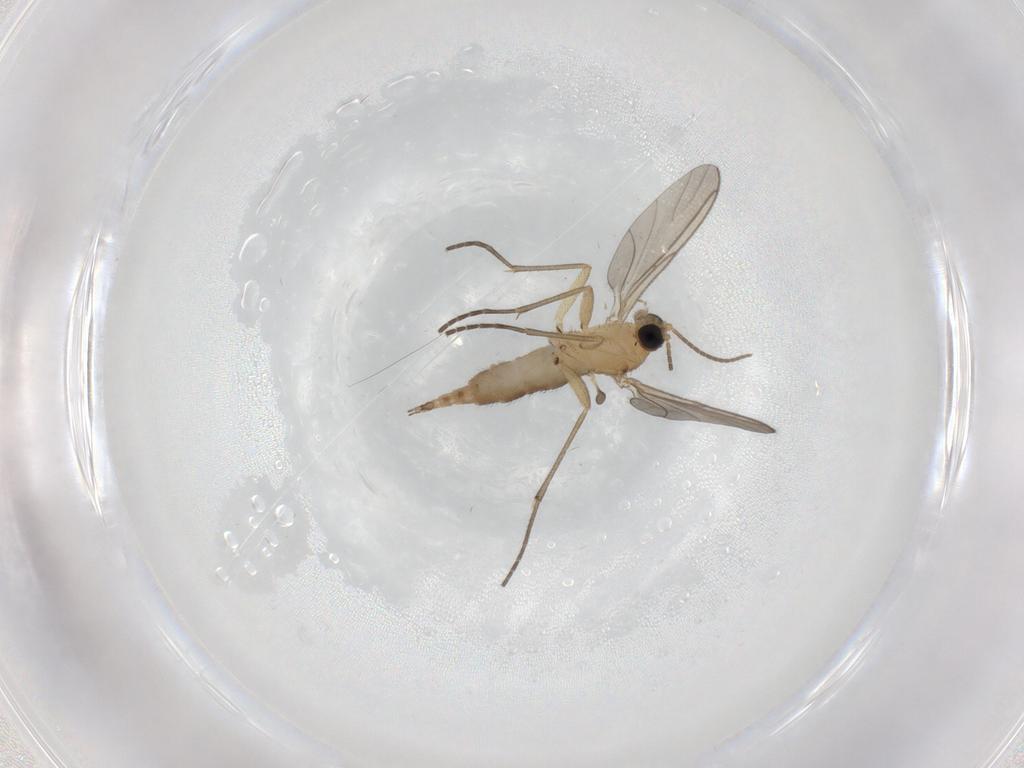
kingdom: Animalia
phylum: Arthropoda
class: Insecta
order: Diptera
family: Sciaridae
